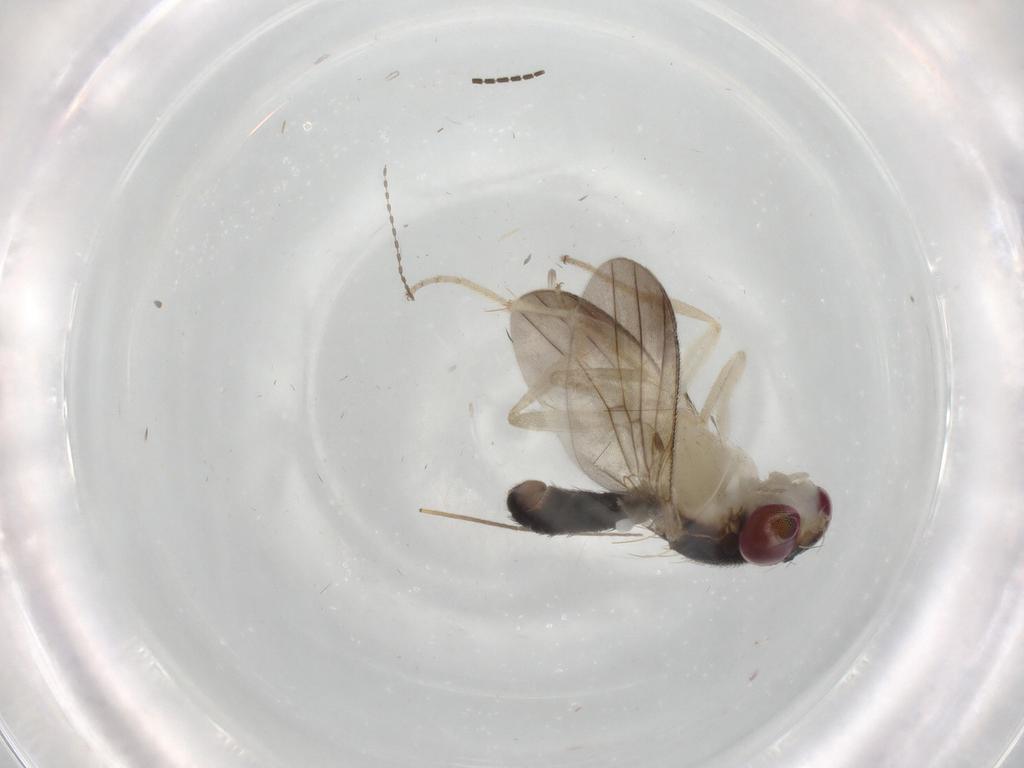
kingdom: Animalia
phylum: Arthropoda
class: Insecta
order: Diptera
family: Sciaridae
